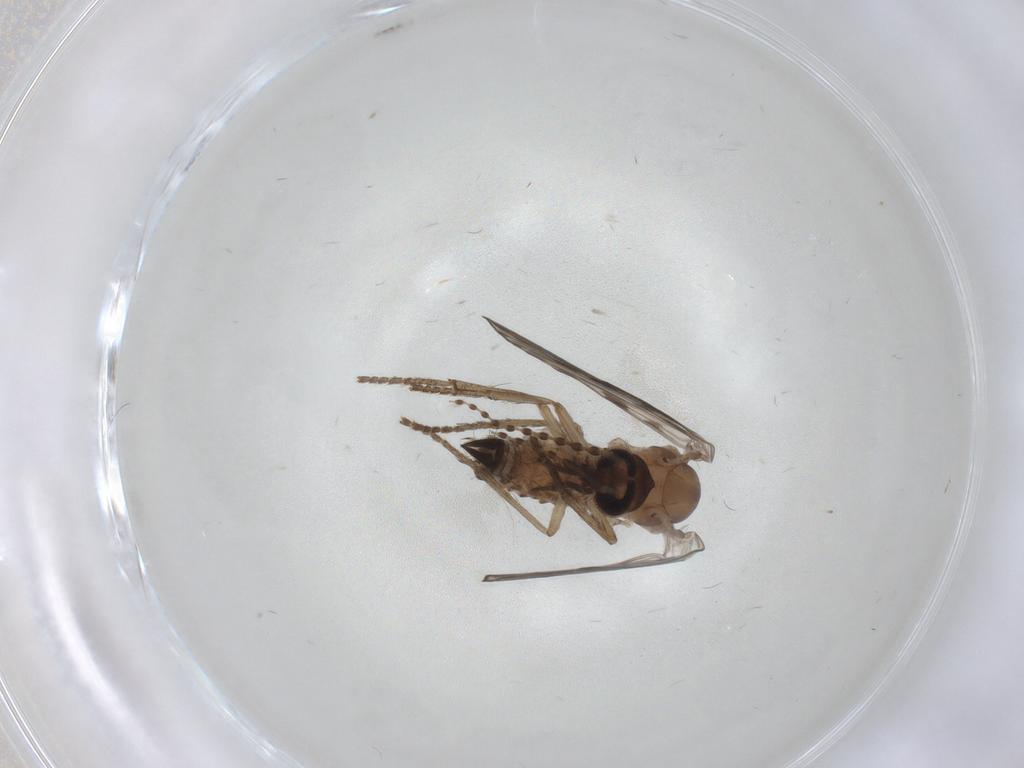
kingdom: Animalia
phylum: Arthropoda
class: Insecta
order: Diptera
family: Psychodidae
